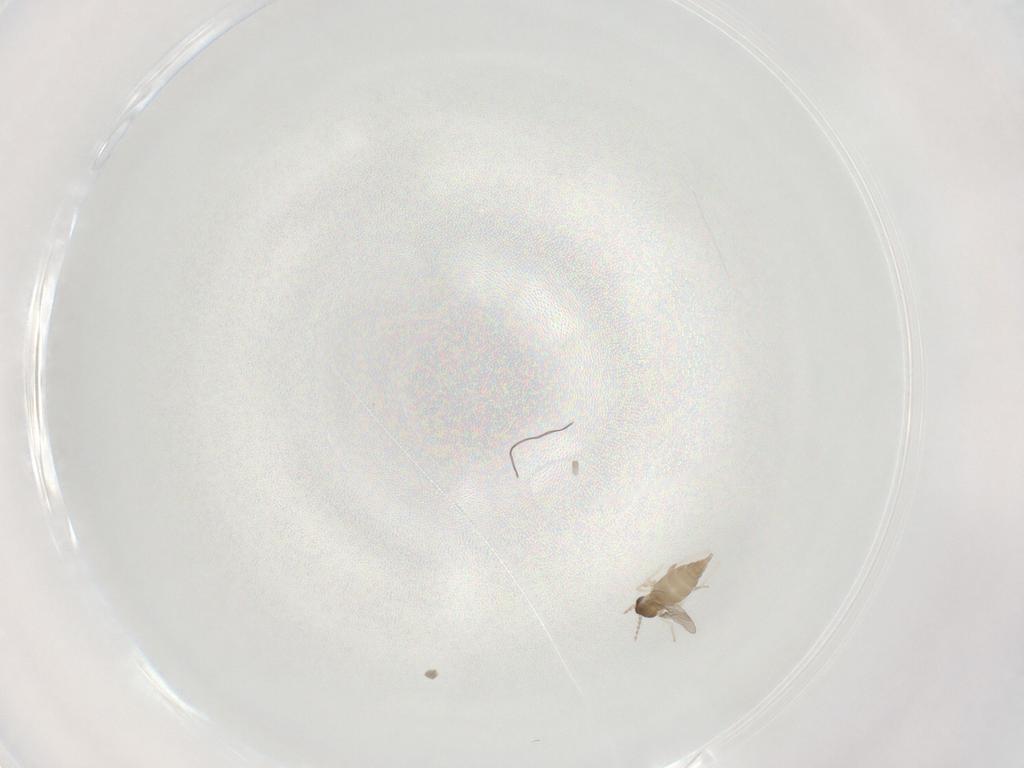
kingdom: Animalia
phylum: Arthropoda
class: Insecta
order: Diptera
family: Cecidomyiidae
